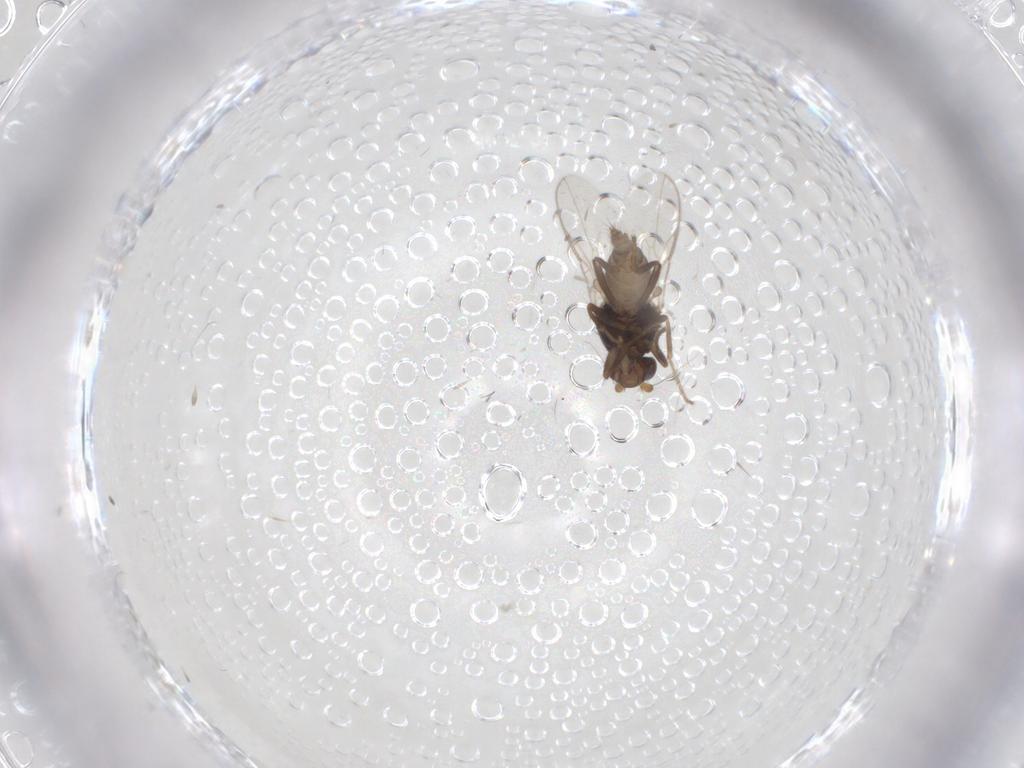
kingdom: Animalia
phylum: Arthropoda
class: Insecta
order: Diptera
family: Sphaeroceridae
